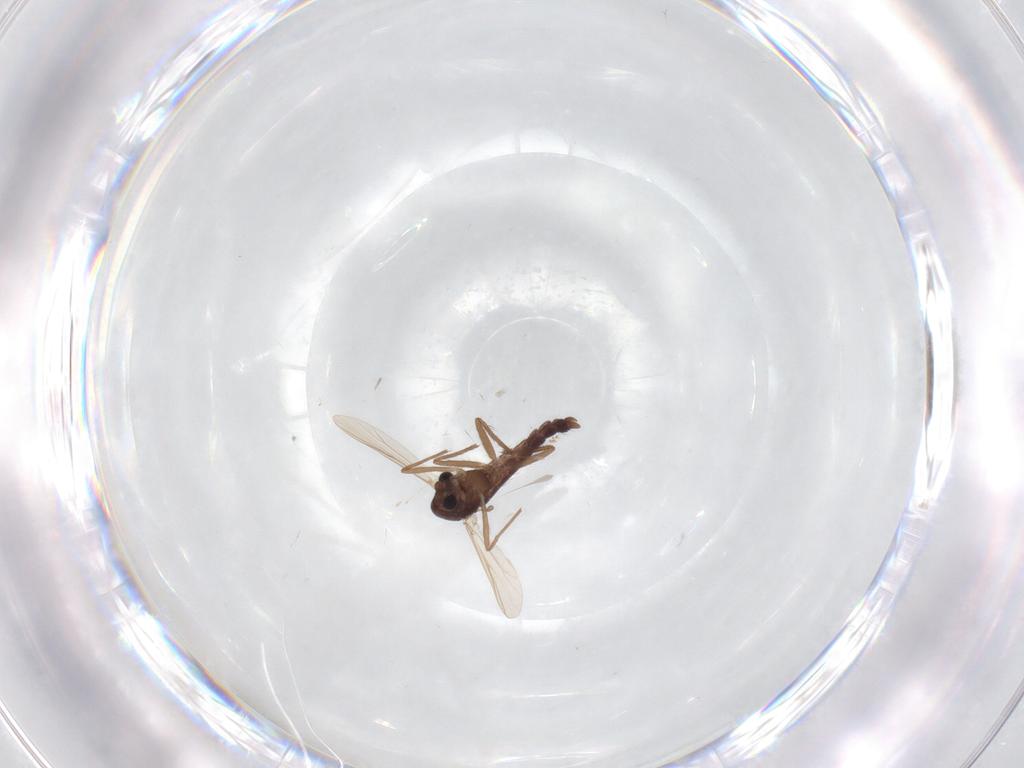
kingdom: Animalia
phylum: Arthropoda
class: Insecta
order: Diptera
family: Chironomidae
